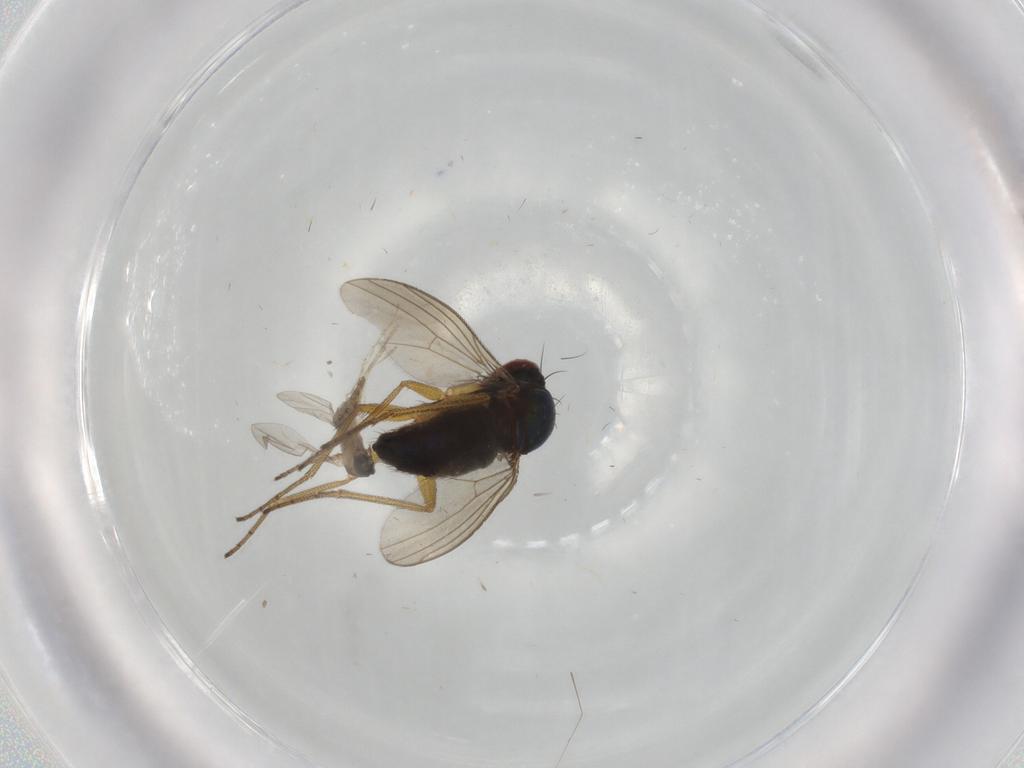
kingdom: Animalia
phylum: Arthropoda
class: Insecta
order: Diptera
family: Dolichopodidae
